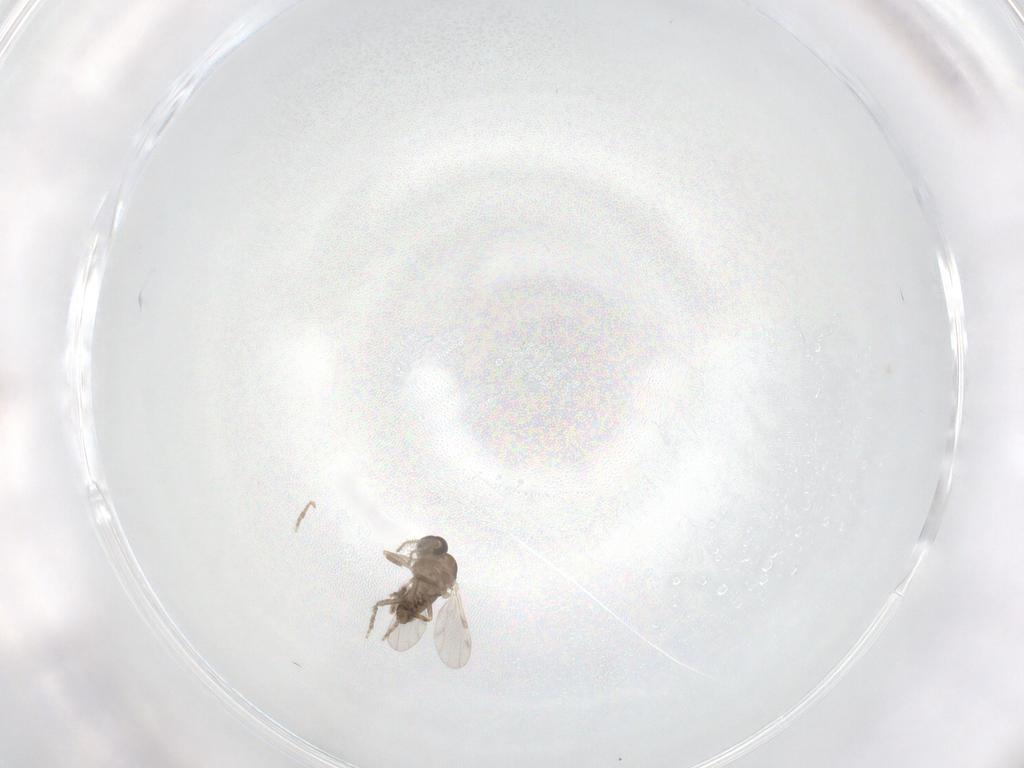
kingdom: Animalia
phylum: Arthropoda
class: Insecta
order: Diptera
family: Ceratopogonidae
